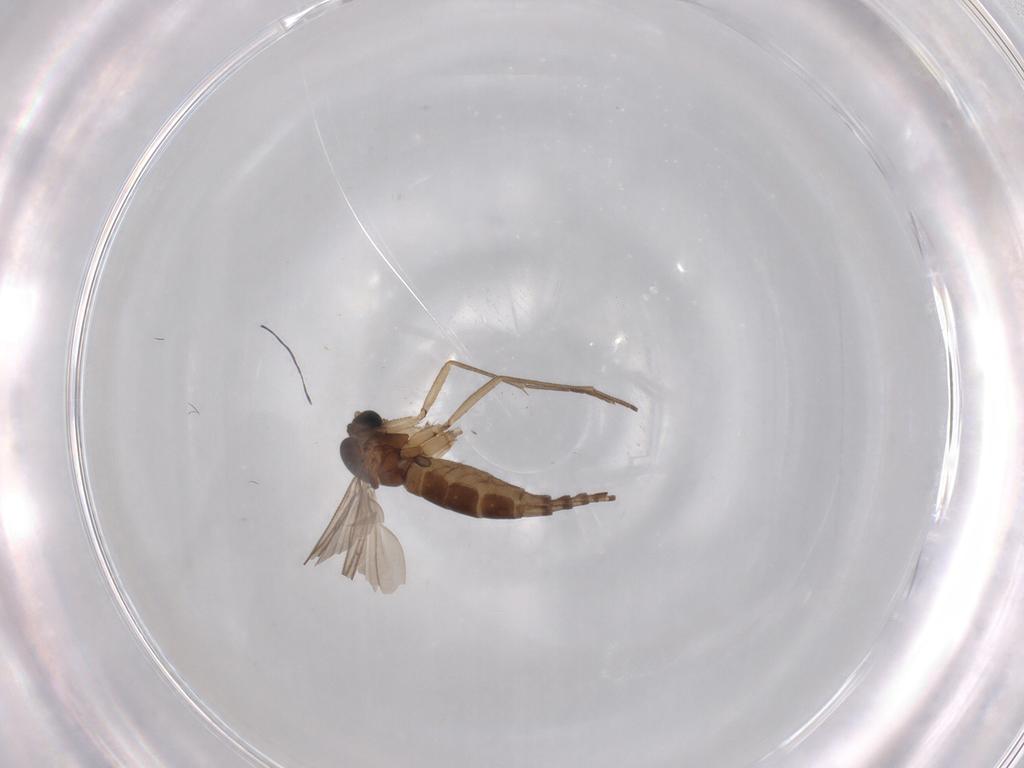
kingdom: Animalia
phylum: Arthropoda
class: Insecta
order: Diptera
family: Sciaridae
